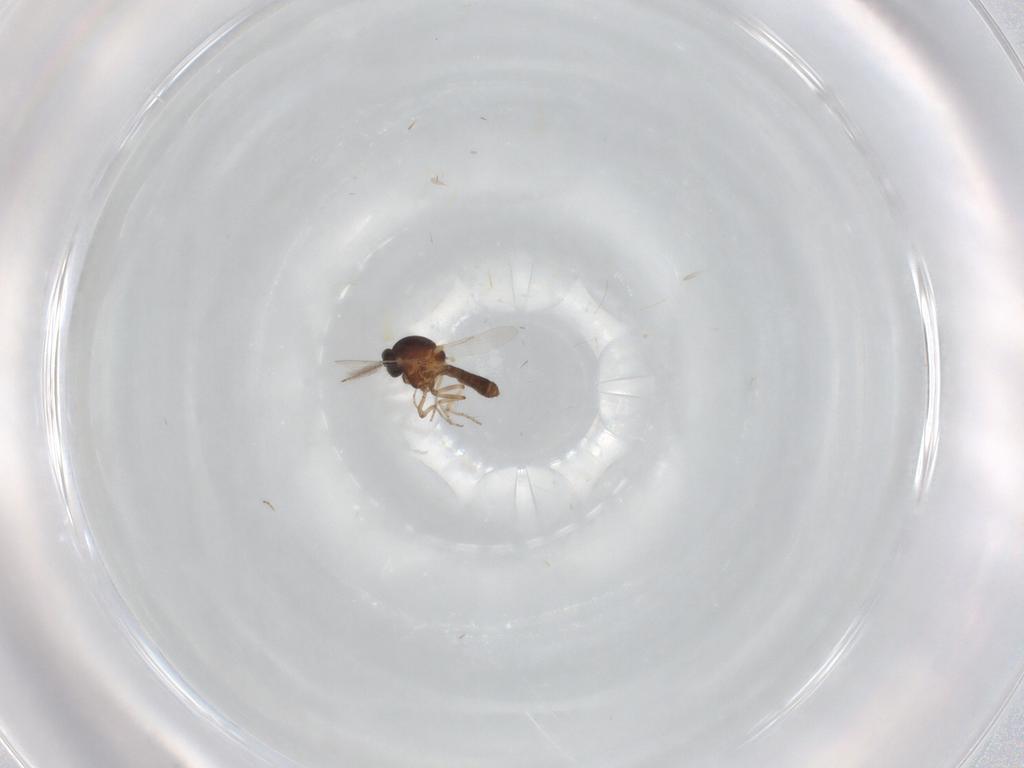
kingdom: Animalia
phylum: Arthropoda
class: Insecta
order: Diptera
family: Ceratopogonidae
